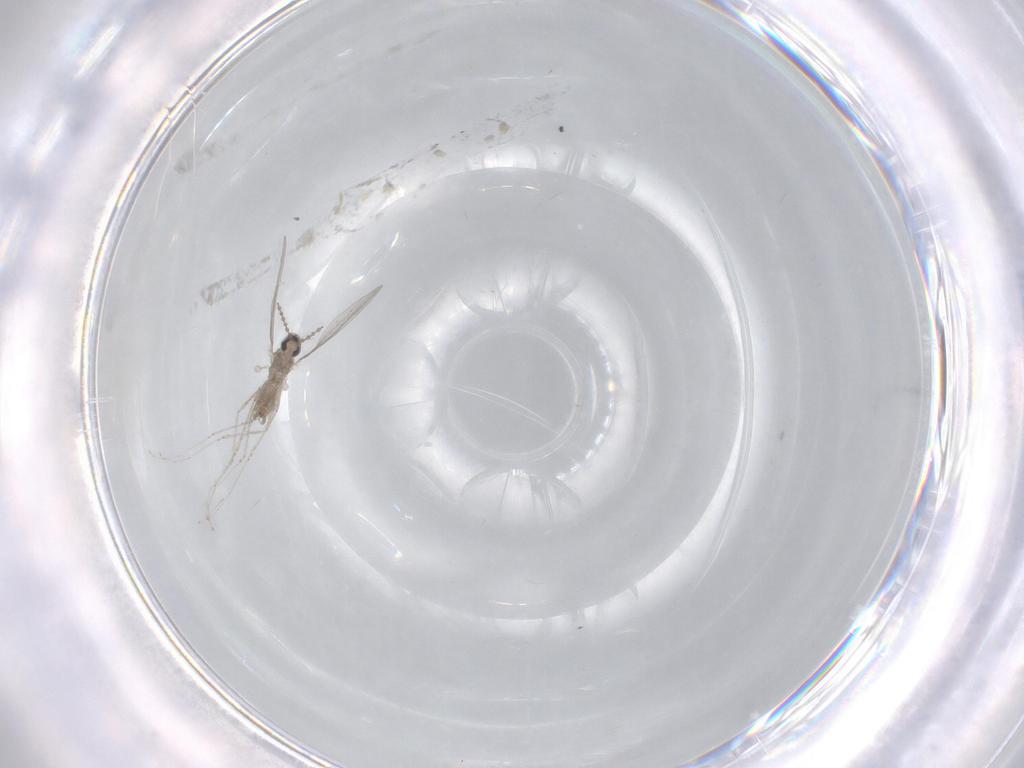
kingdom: Animalia
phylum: Arthropoda
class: Insecta
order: Diptera
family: Cecidomyiidae
